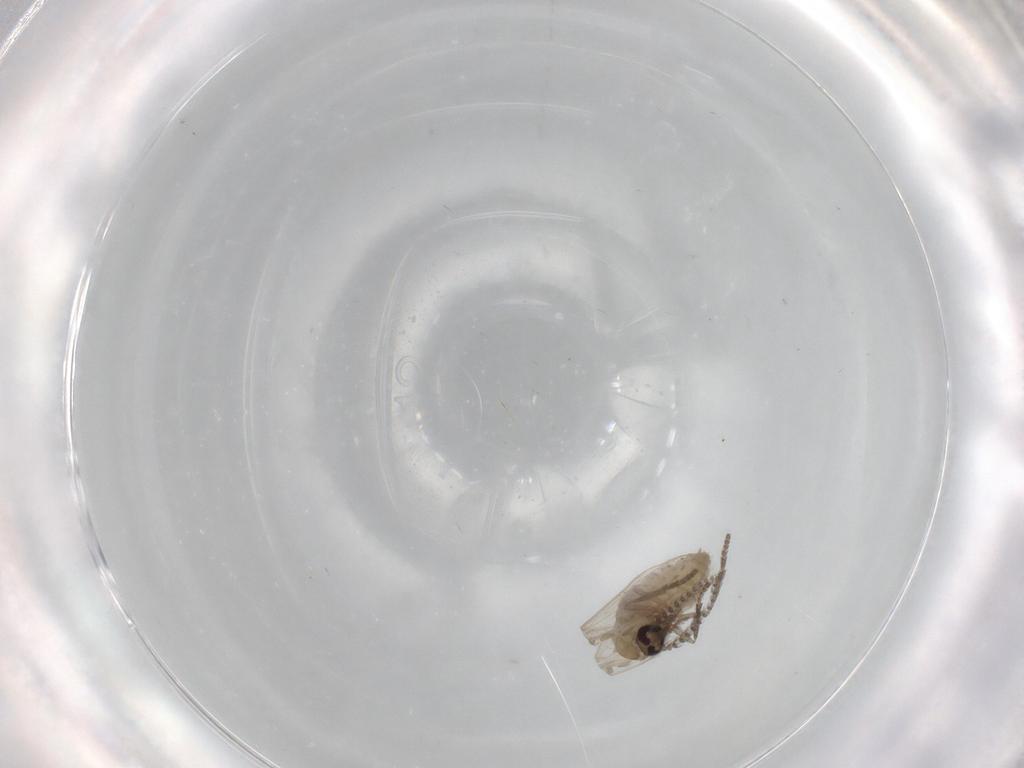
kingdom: Animalia
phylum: Arthropoda
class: Insecta
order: Diptera
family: Psychodidae
